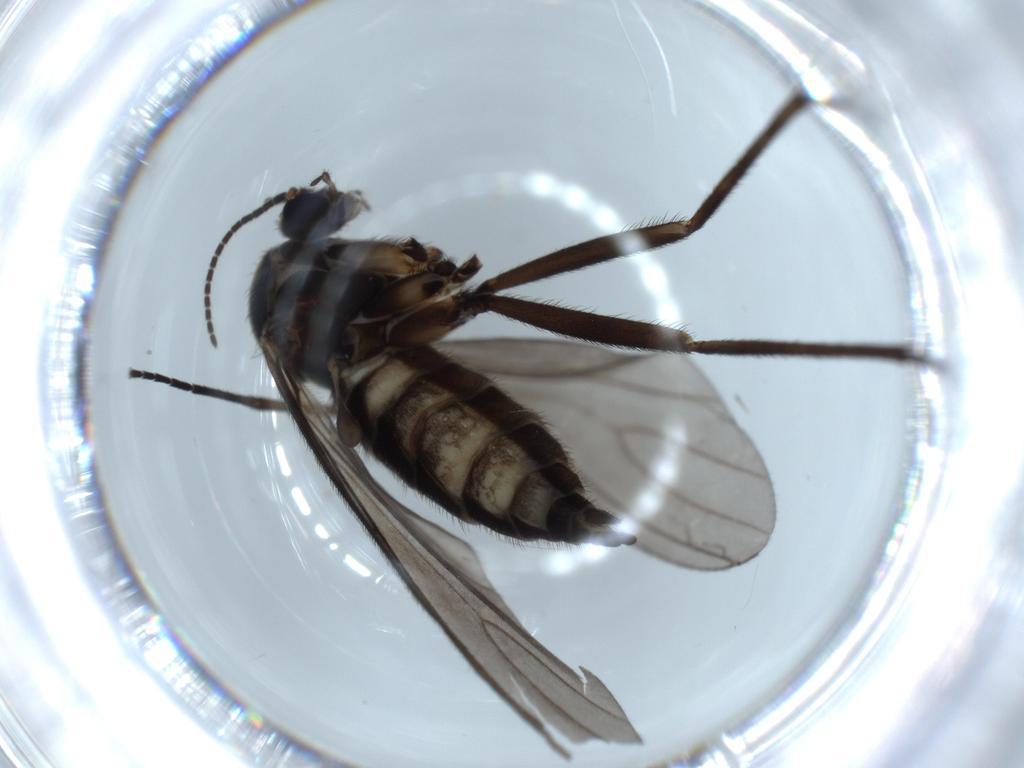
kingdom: Animalia
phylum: Arthropoda
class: Insecta
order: Diptera
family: Sciaridae
